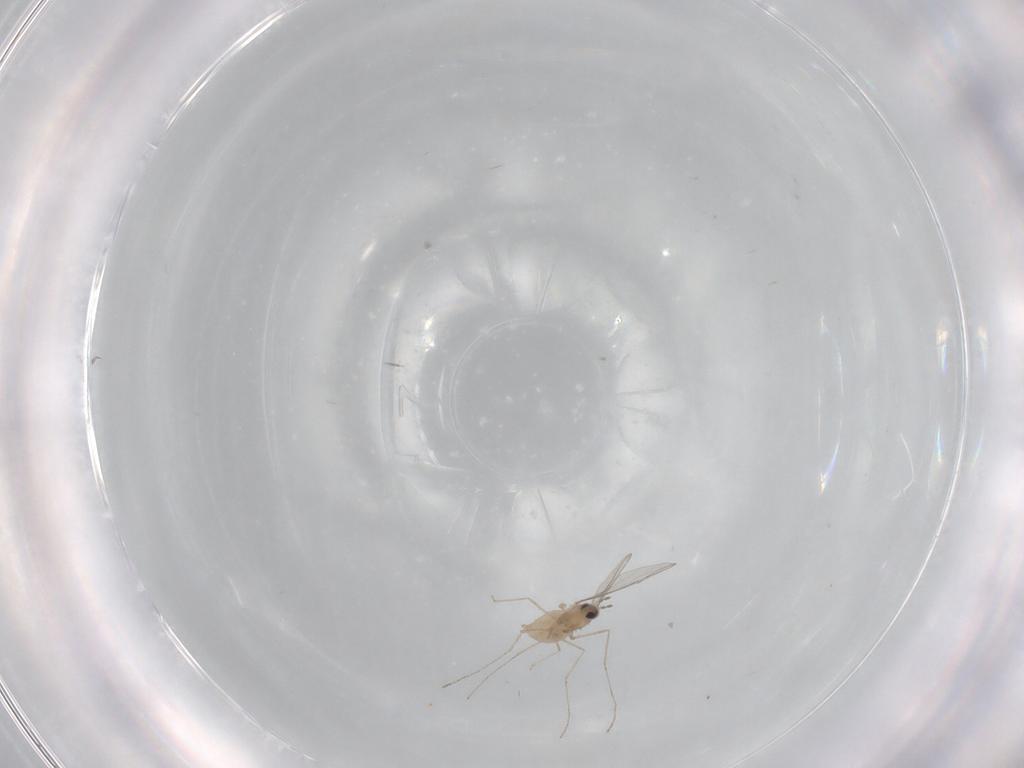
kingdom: Animalia
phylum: Arthropoda
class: Insecta
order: Diptera
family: Cecidomyiidae
